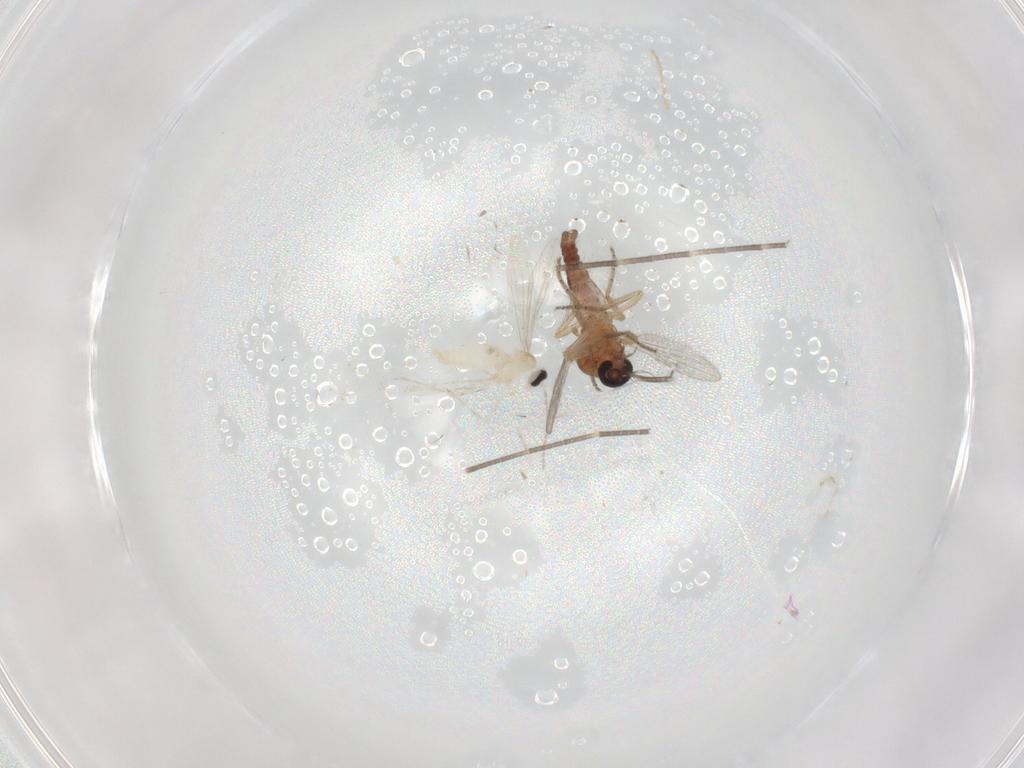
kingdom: Animalia
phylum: Arthropoda
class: Insecta
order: Diptera
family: Ceratopogonidae
